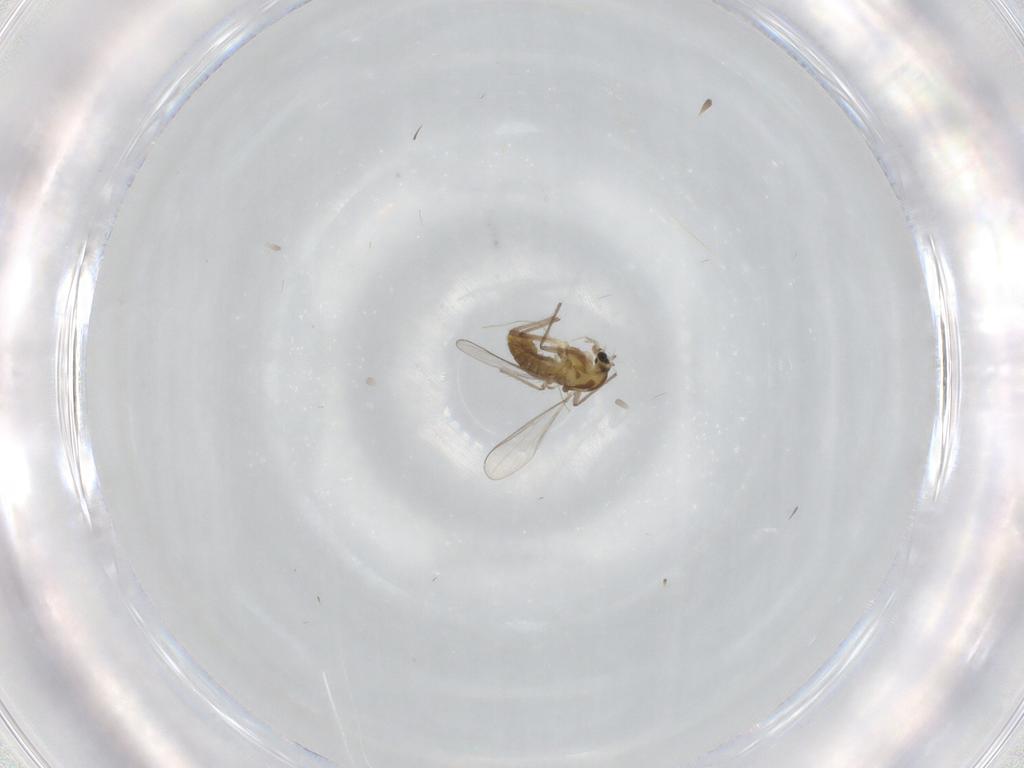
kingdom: Animalia
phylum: Arthropoda
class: Insecta
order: Diptera
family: Chironomidae
